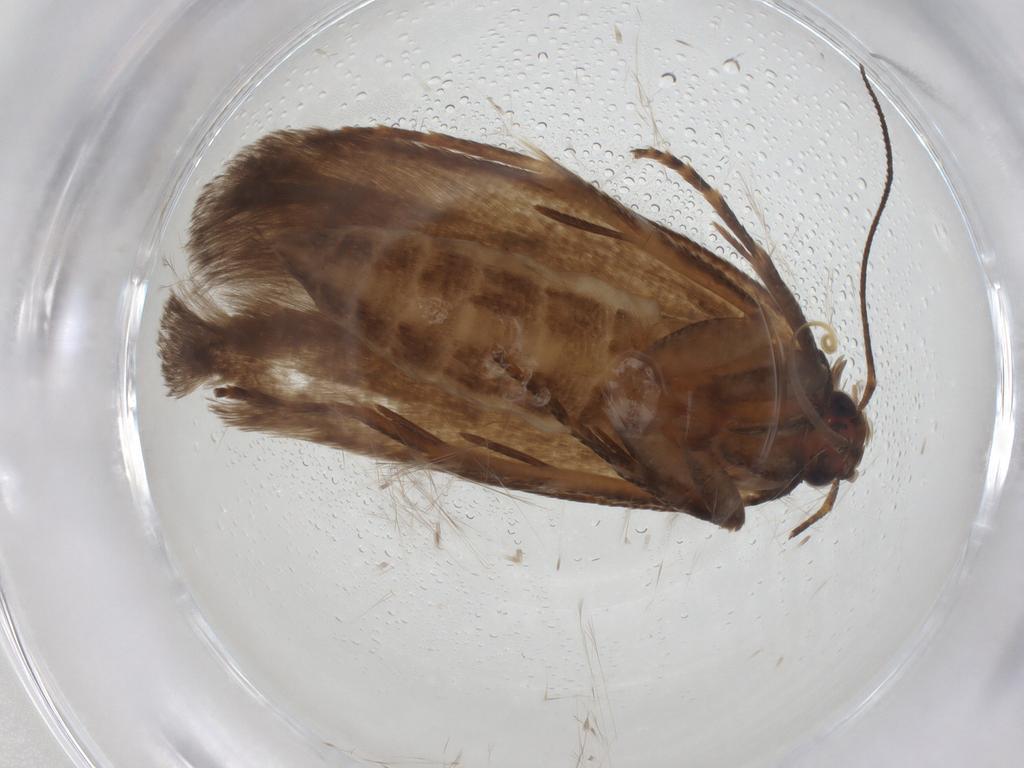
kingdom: Animalia
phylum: Arthropoda
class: Insecta
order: Lepidoptera
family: Gelechiidae
